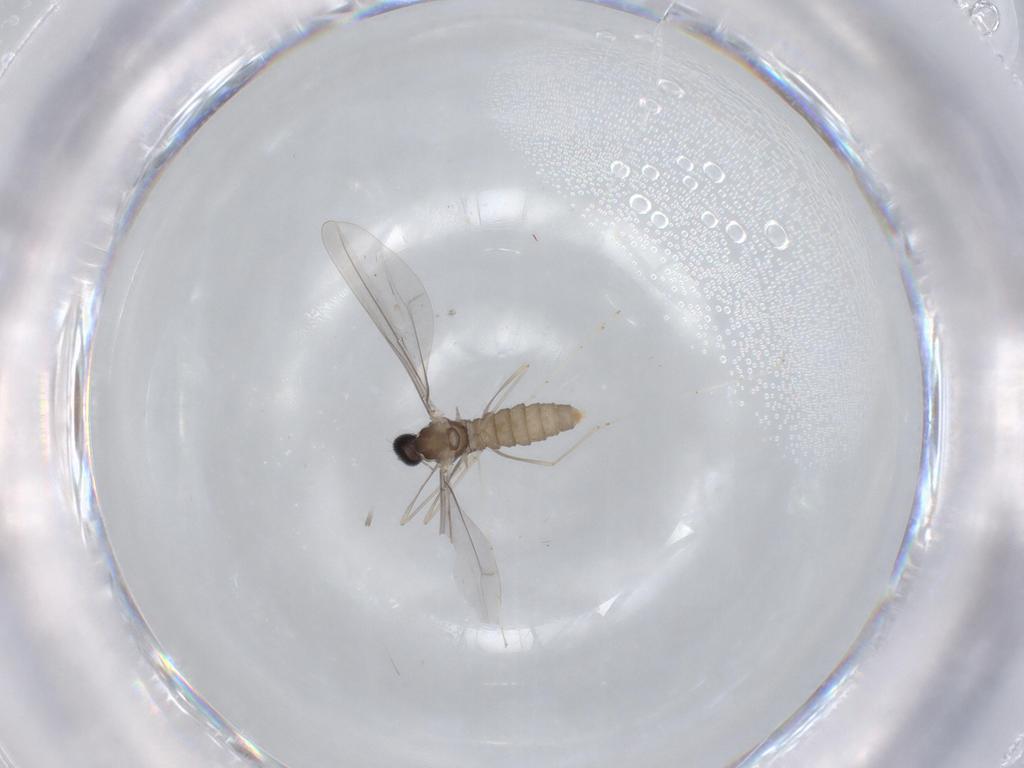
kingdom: Animalia
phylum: Arthropoda
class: Insecta
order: Diptera
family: Cecidomyiidae
